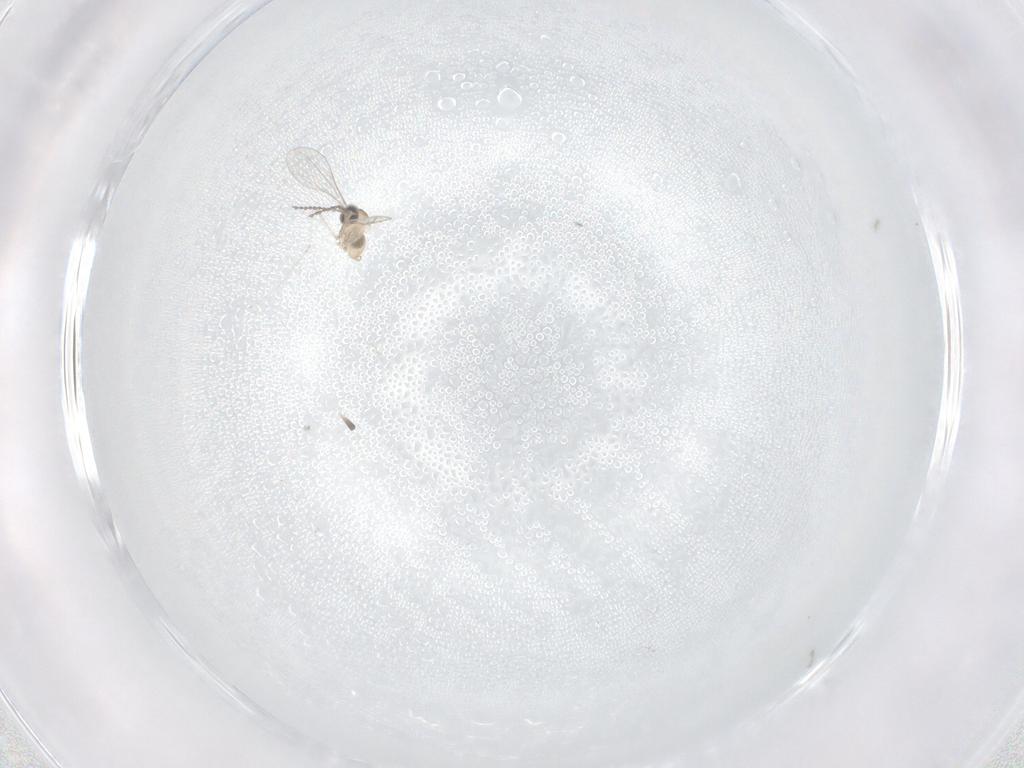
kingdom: Animalia
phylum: Arthropoda
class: Insecta
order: Diptera
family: Cecidomyiidae
